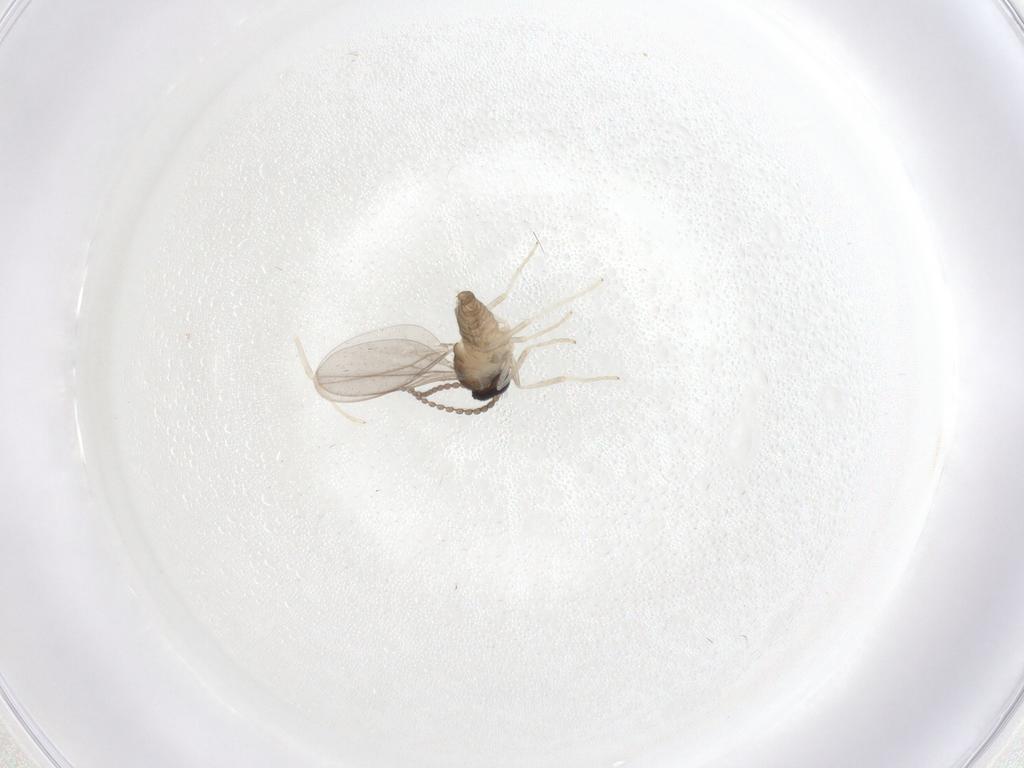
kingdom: Animalia
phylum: Arthropoda
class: Insecta
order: Diptera
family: Cecidomyiidae
